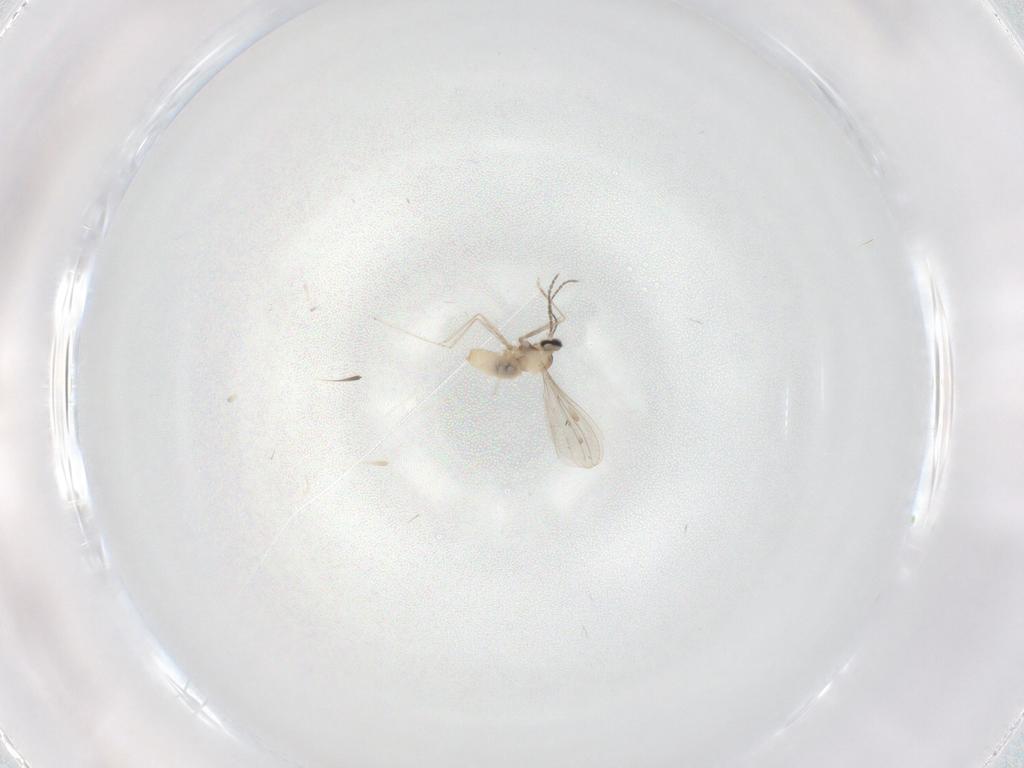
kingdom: Animalia
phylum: Arthropoda
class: Insecta
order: Diptera
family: Cecidomyiidae
